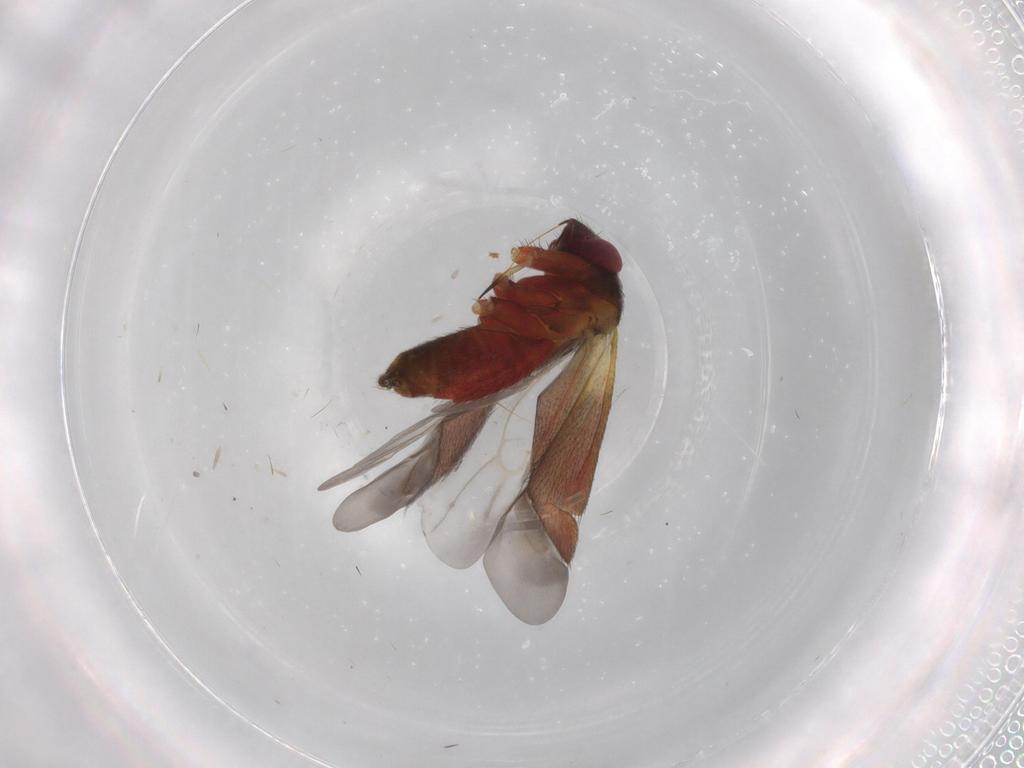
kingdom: Animalia
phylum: Arthropoda
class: Insecta
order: Hemiptera
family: Miridae
